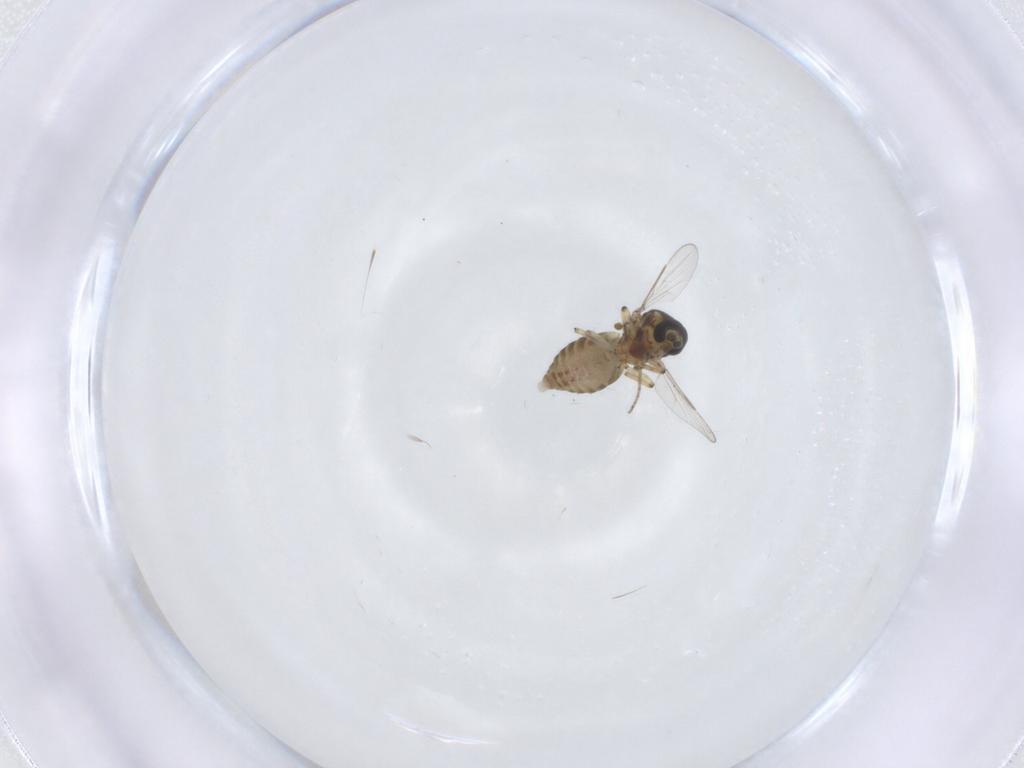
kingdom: Animalia
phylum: Arthropoda
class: Insecta
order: Diptera
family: Ceratopogonidae
